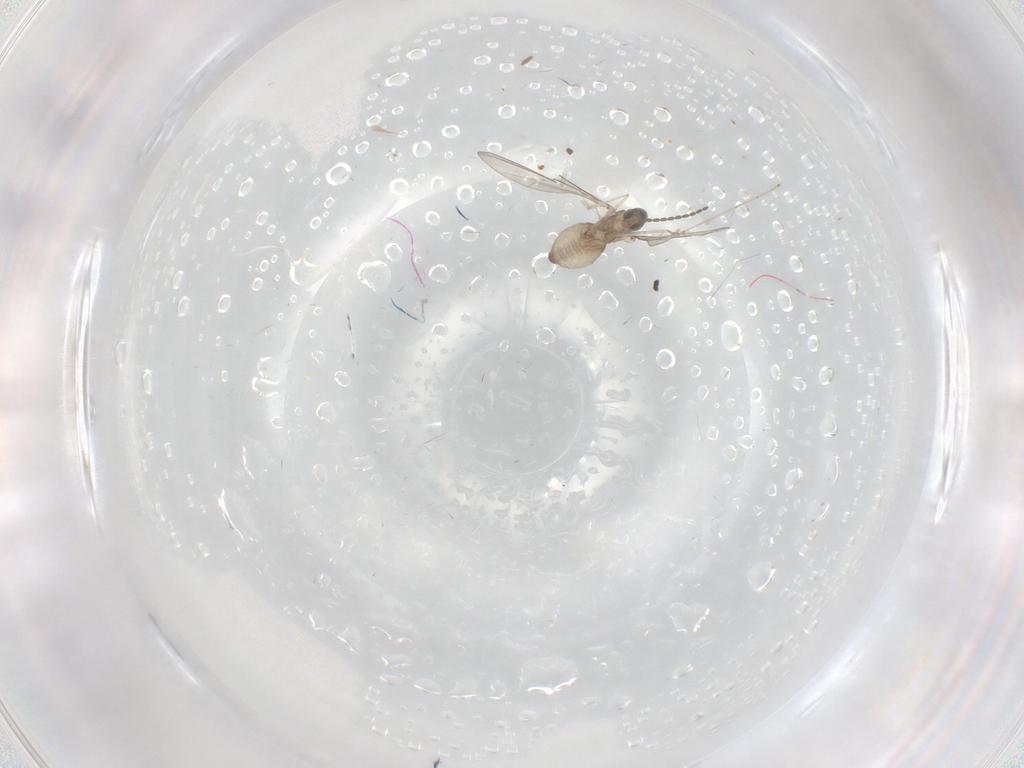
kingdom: Animalia
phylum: Arthropoda
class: Insecta
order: Diptera
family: Cecidomyiidae
